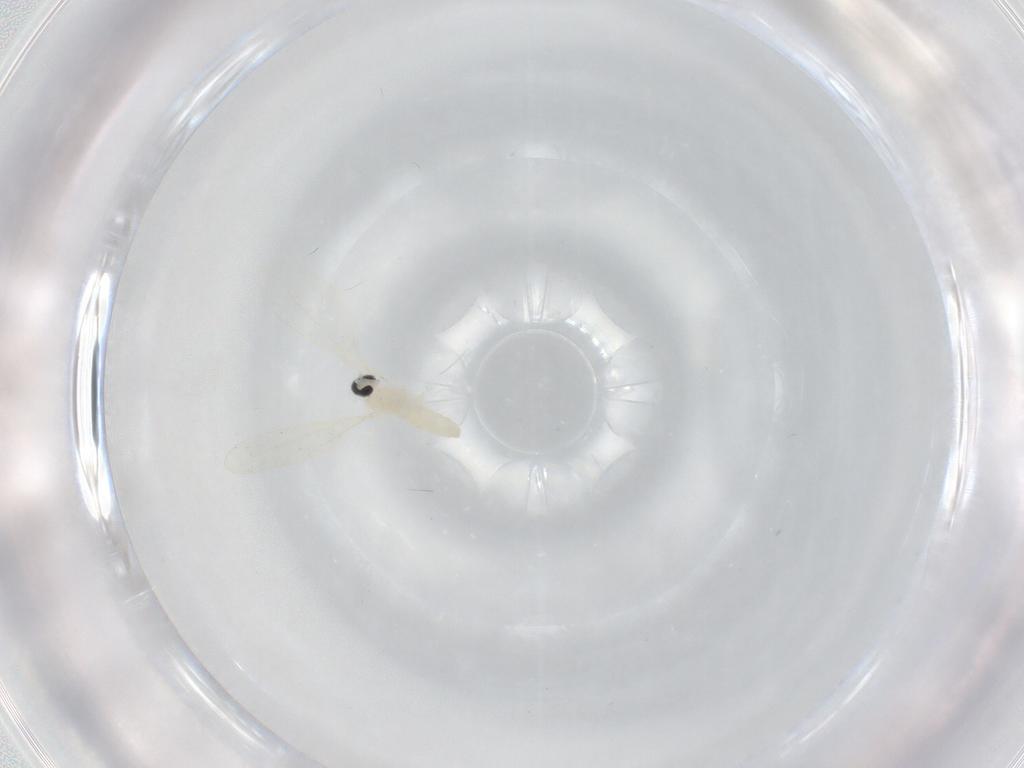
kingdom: Animalia
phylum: Arthropoda
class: Insecta
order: Diptera
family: Cecidomyiidae
